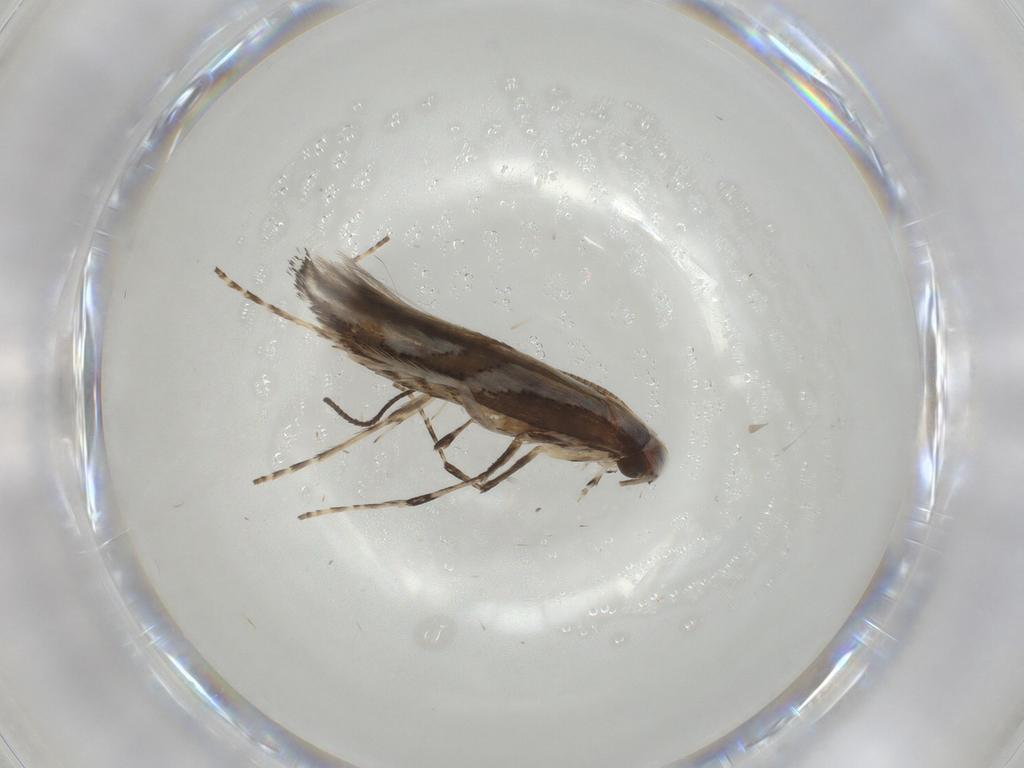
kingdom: Animalia
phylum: Arthropoda
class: Insecta
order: Lepidoptera
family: Gracillariidae
